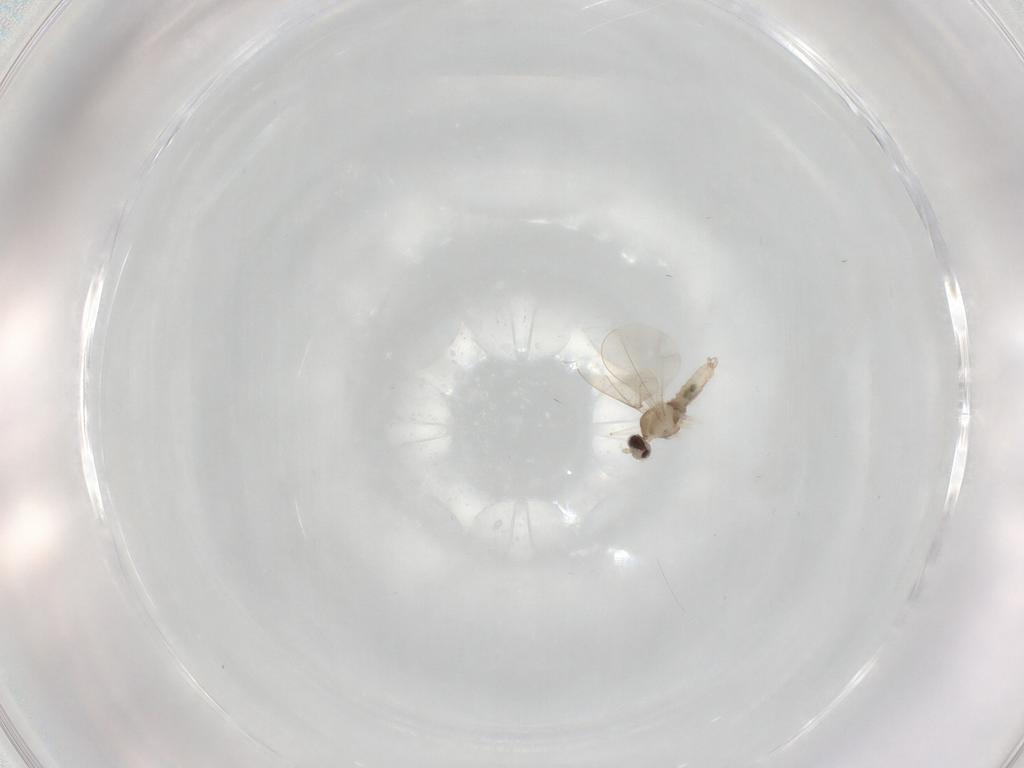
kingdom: Animalia
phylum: Arthropoda
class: Insecta
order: Diptera
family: Cecidomyiidae
